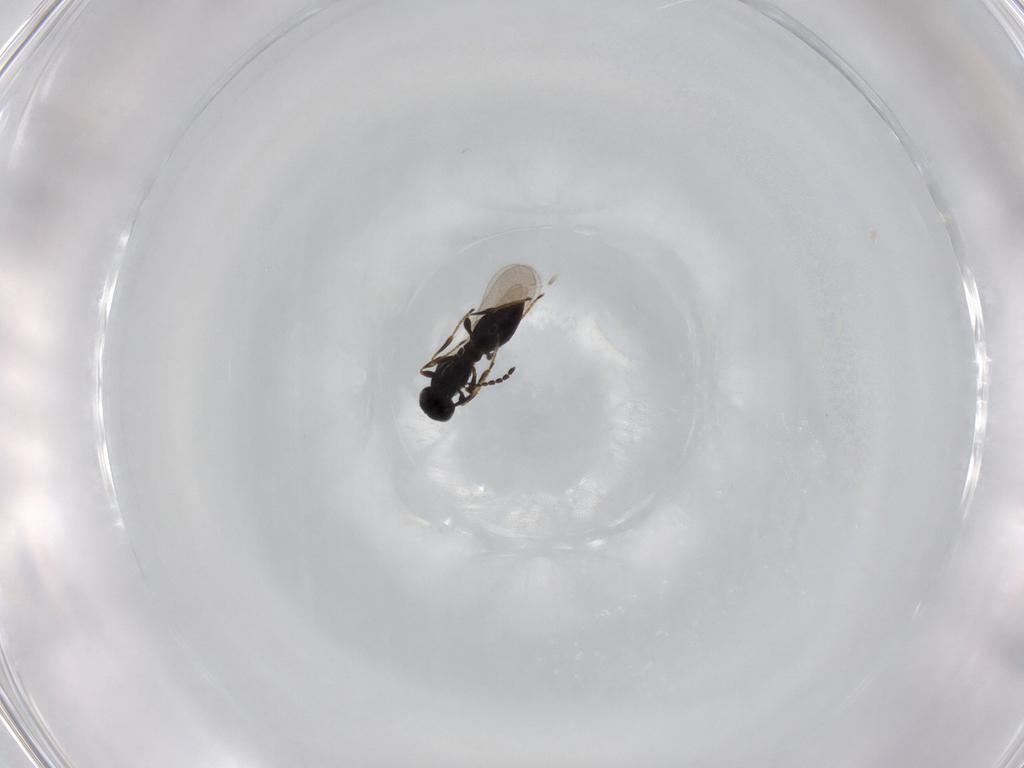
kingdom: Animalia
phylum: Arthropoda
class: Insecta
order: Hymenoptera
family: Platygastridae
